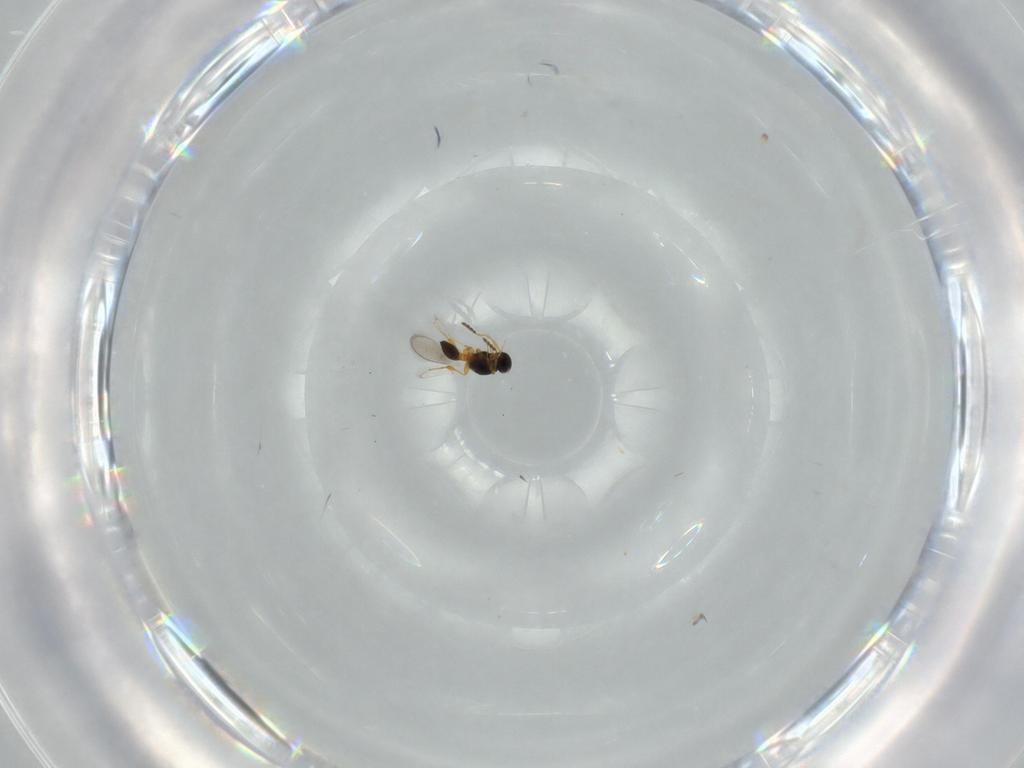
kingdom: Animalia
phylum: Arthropoda
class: Insecta
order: Hymenoptera
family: Platygastridae
